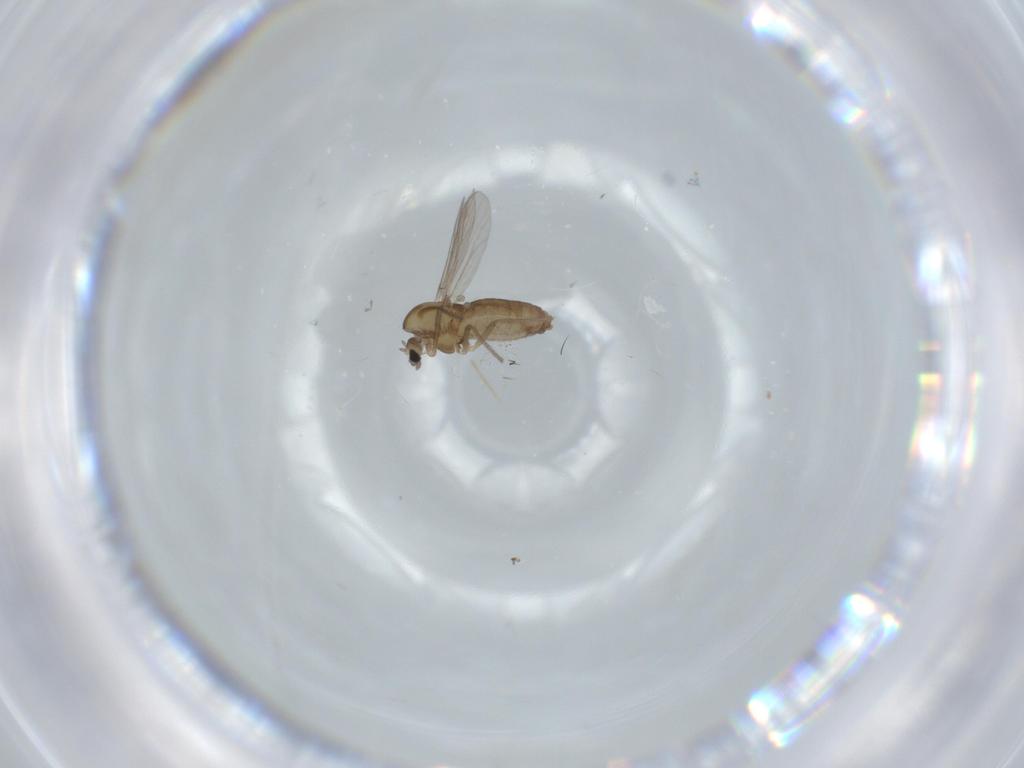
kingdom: Animalia
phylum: Arthropoda
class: Insecta
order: Diptera
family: Chironomidae
